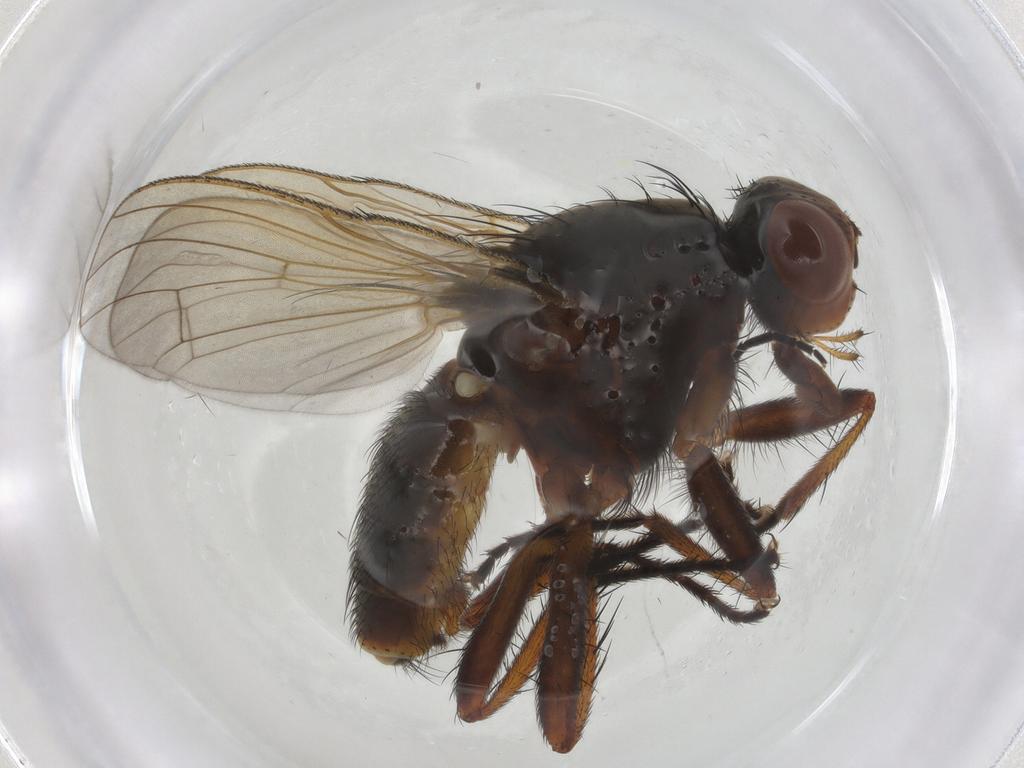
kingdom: Animalia
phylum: Arthropoda
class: Insecta
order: Diptera
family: Anthomyiidae
